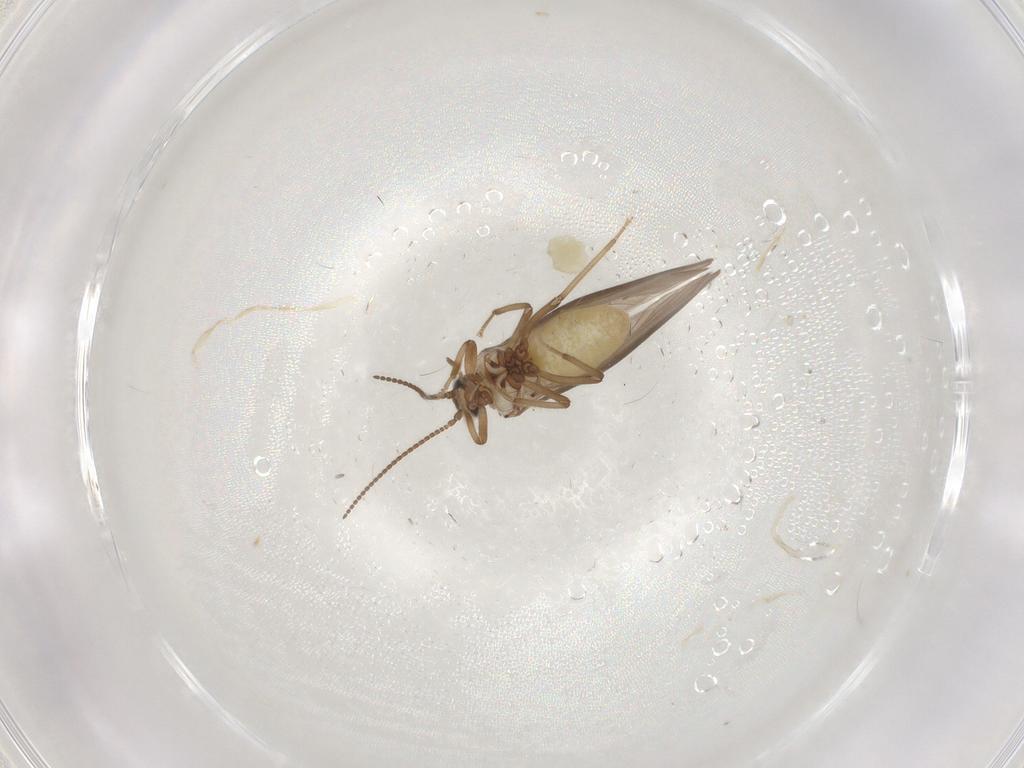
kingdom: Animalia
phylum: Arthropoda
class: Insecta
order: Neuroptera
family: Coniopterygidae
